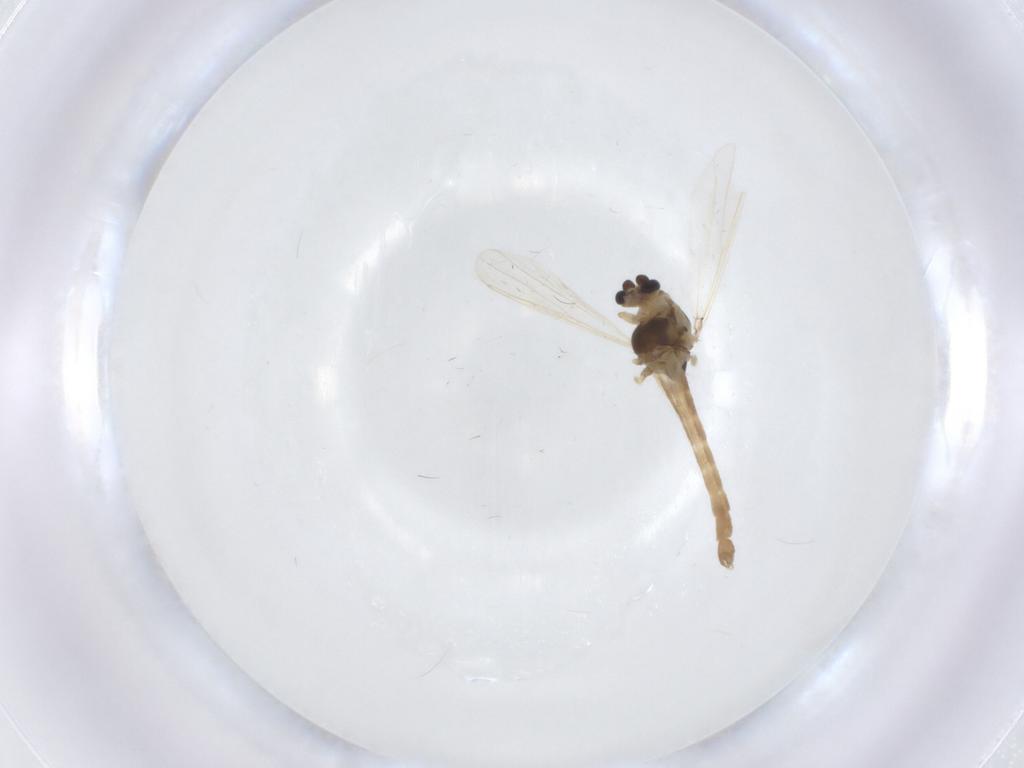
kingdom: Animalia
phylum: Arthropoda
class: Insecta
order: Diptera
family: Chironomidae
